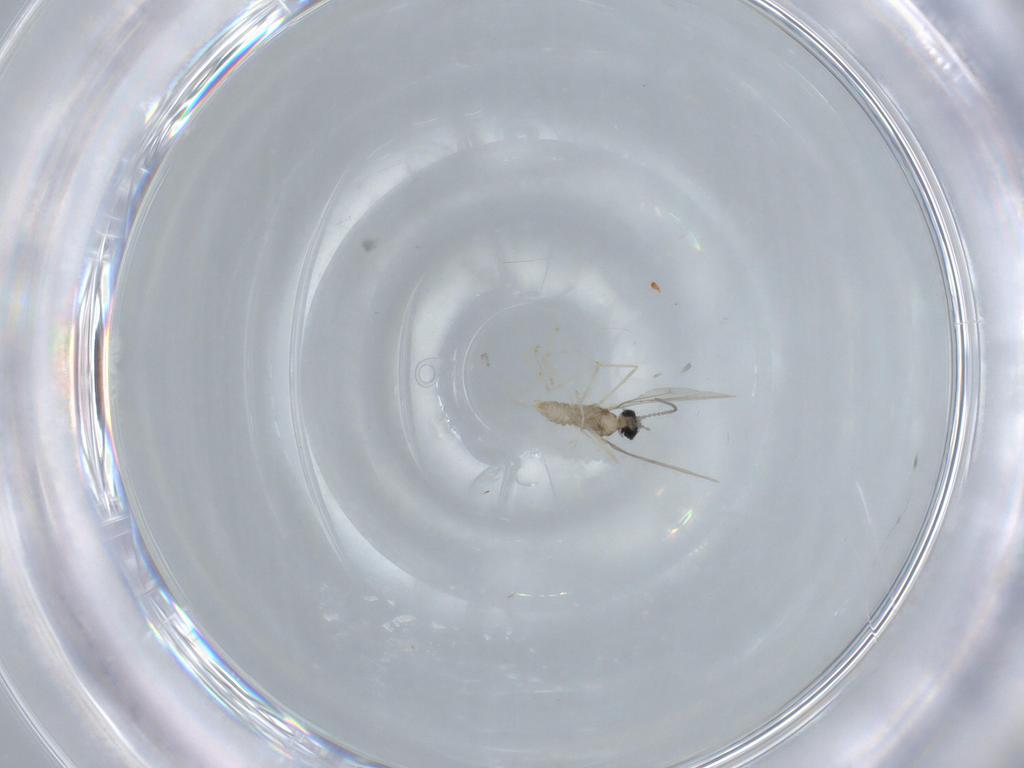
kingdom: Animalia
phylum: Arthropoda
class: Insecta
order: Diptera
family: Cecidomyiidae
